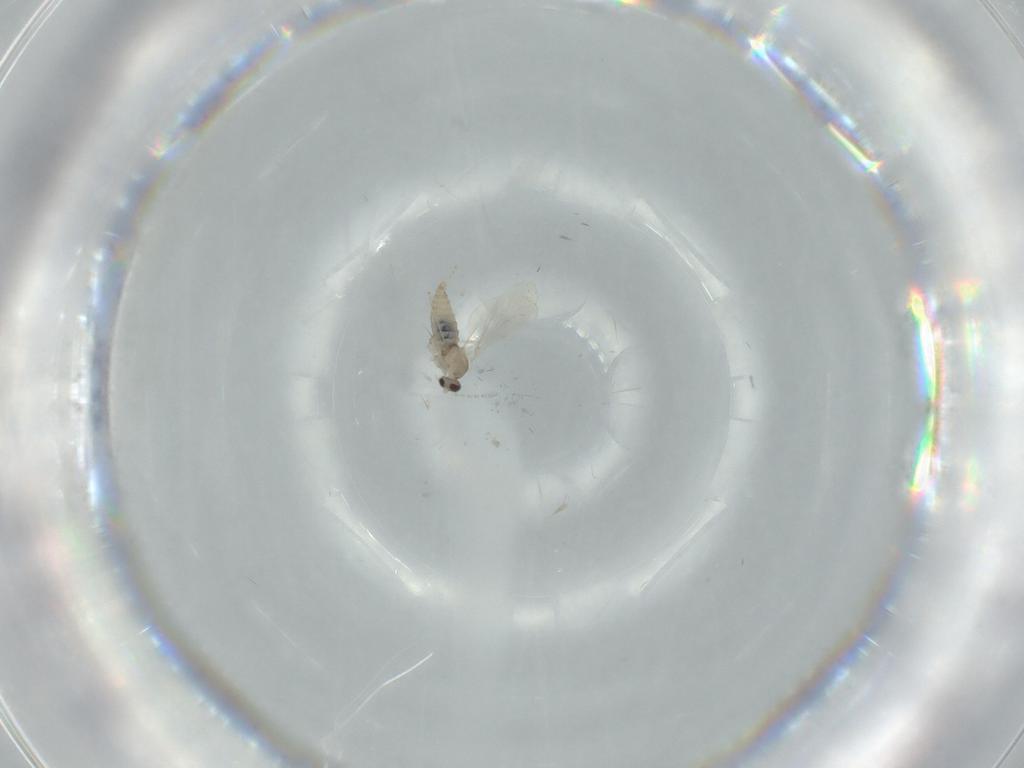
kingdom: Animalia
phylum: Arthropoda
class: Insecta
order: Diptera
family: Cecidomyiidae
